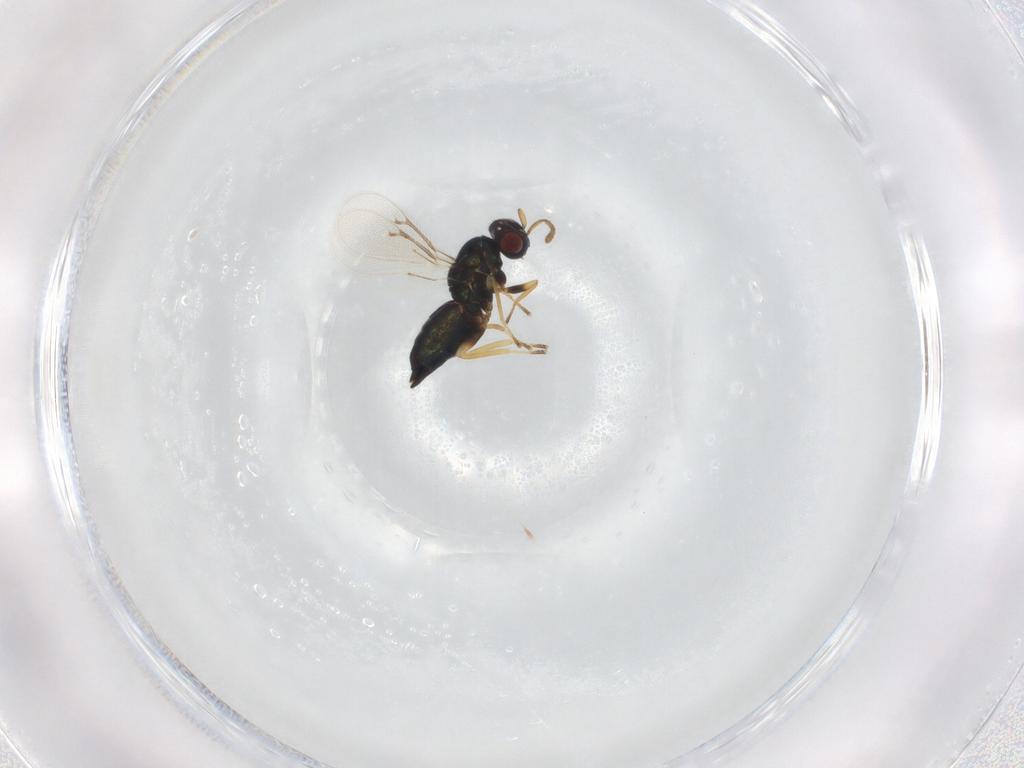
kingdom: Animalia
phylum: Arthropoda
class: Insecta
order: Hymenoptera
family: Eulophidae
